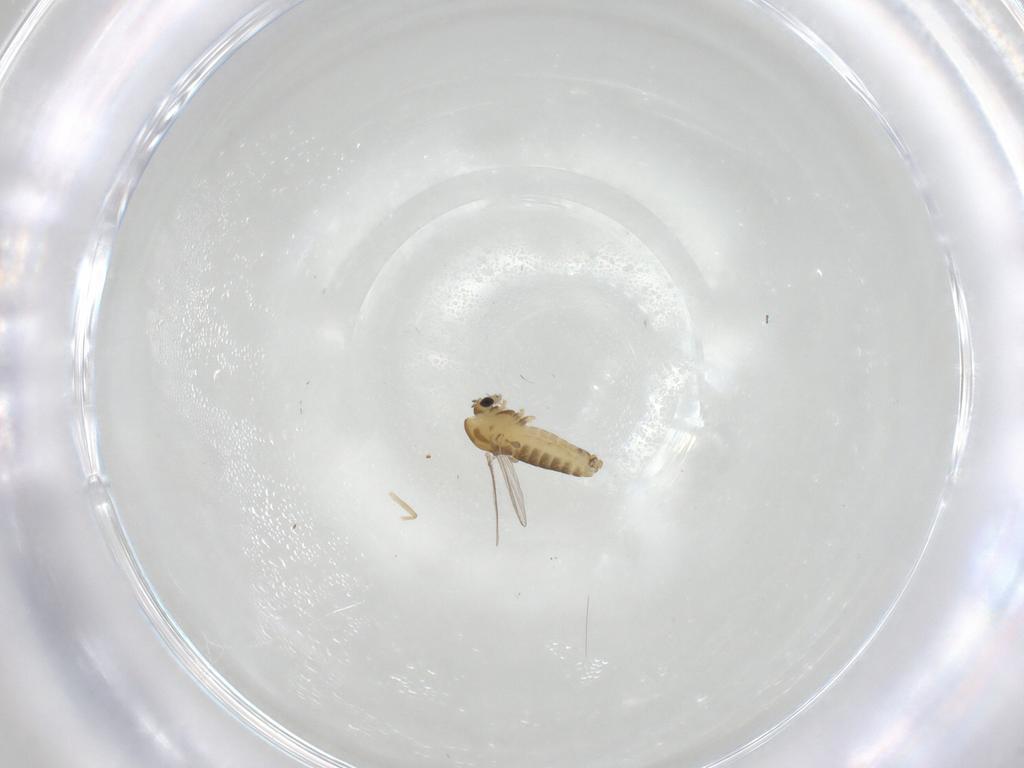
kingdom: Animalia
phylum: Arthropoda
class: Insecta
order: Diptera
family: Chironomidae
